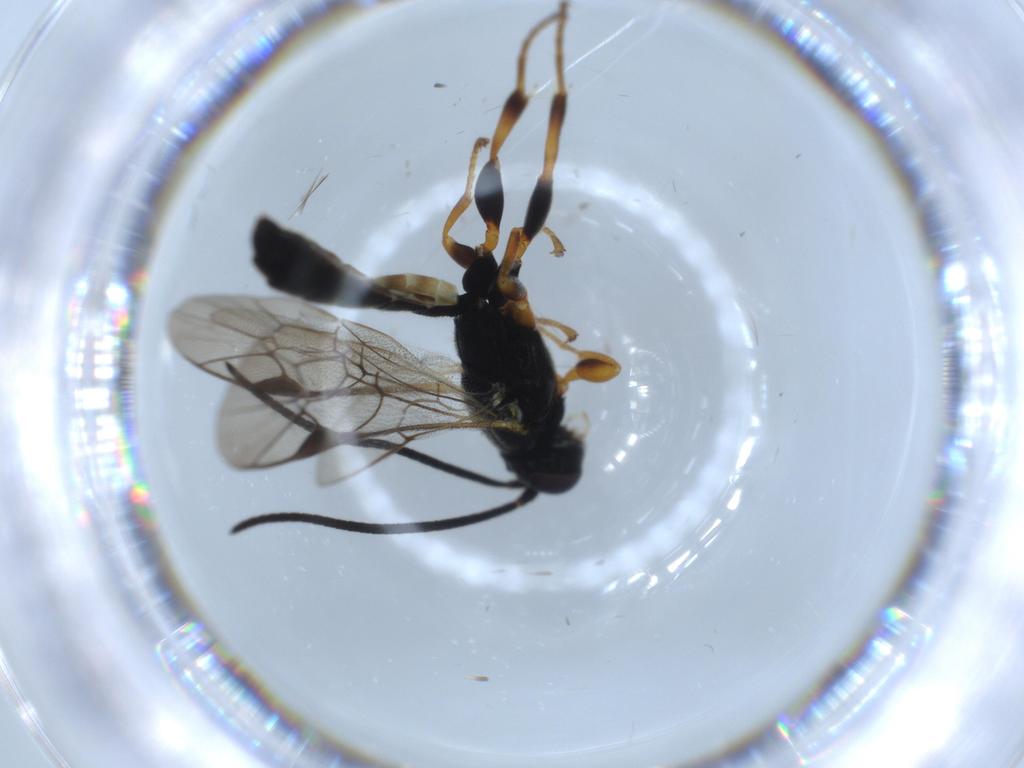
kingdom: Animalia
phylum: Arthropoda
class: Insecta
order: Hymenoptera
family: Ichneumonidae
